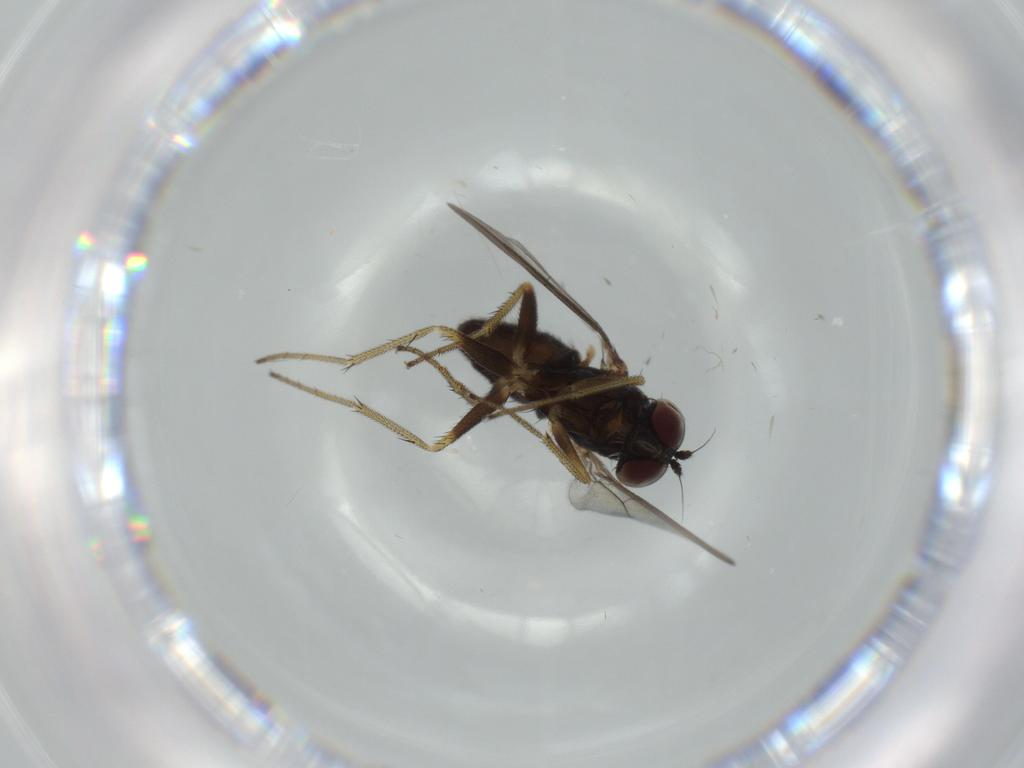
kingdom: Animalia
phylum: Arthropoda
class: Insecta
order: Diptera
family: Dolichopodidae
